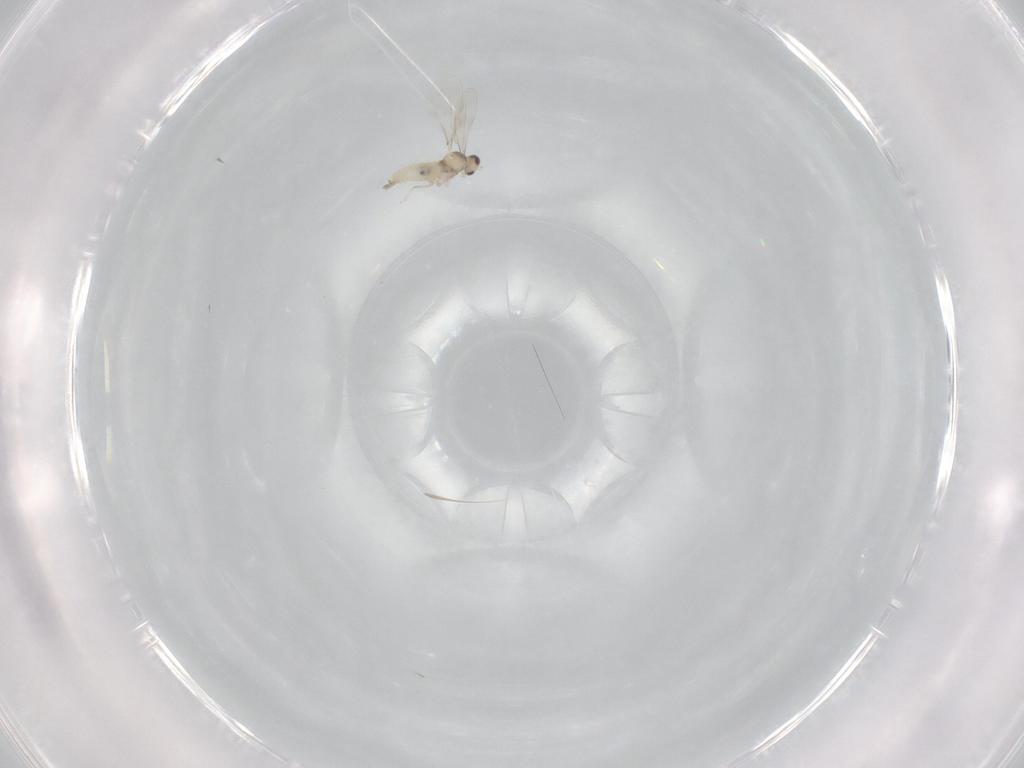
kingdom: Animalia
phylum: Arthropoda
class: Insecta
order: Diptera
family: Cecidomyiidae
